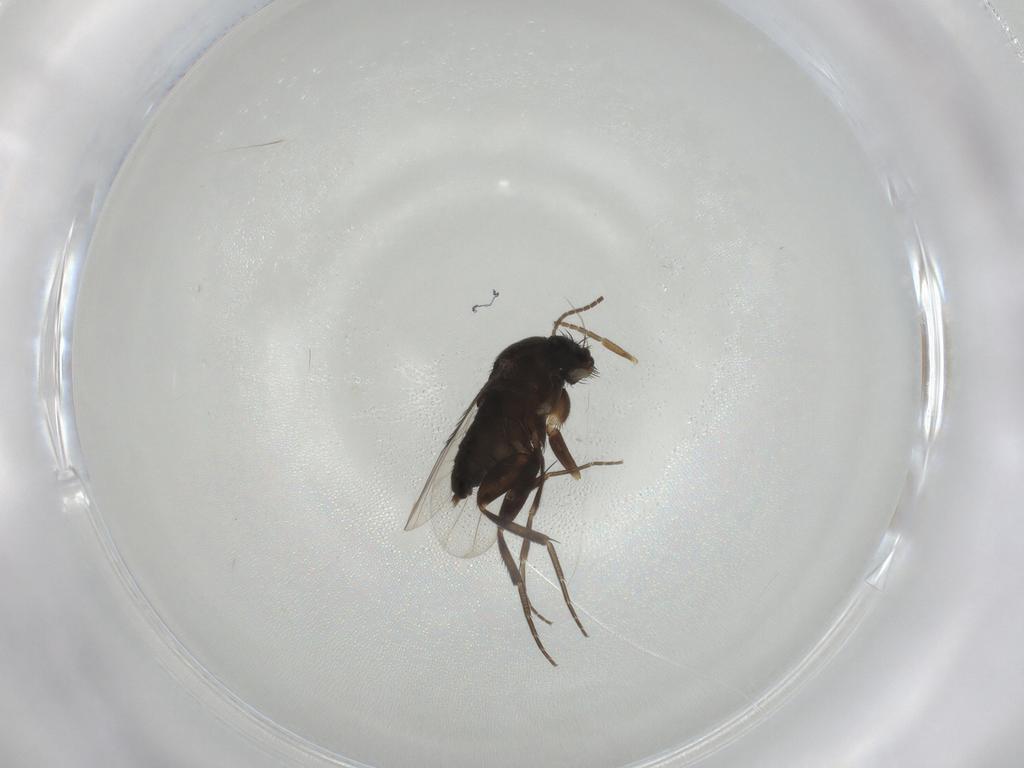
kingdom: Animalia
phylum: Arthropoda
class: Insecta
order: Diptera
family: Phoridae
